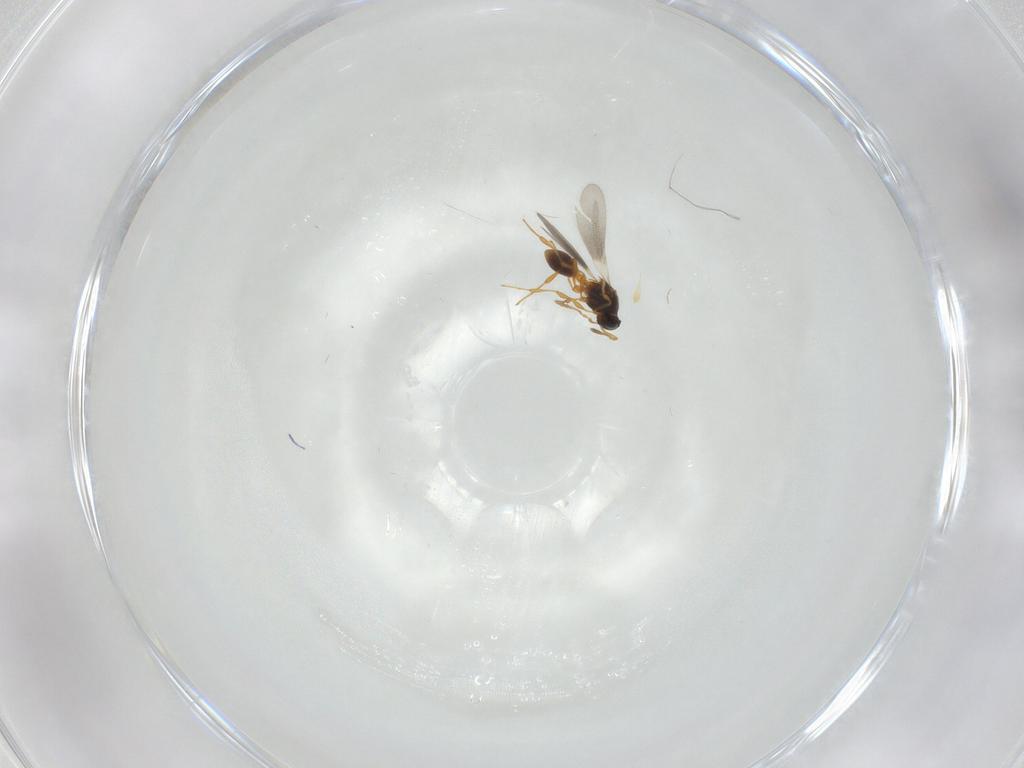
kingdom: Animalia
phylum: Arthropoda
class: Insecta
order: Hymenoptera
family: Platygastridae
